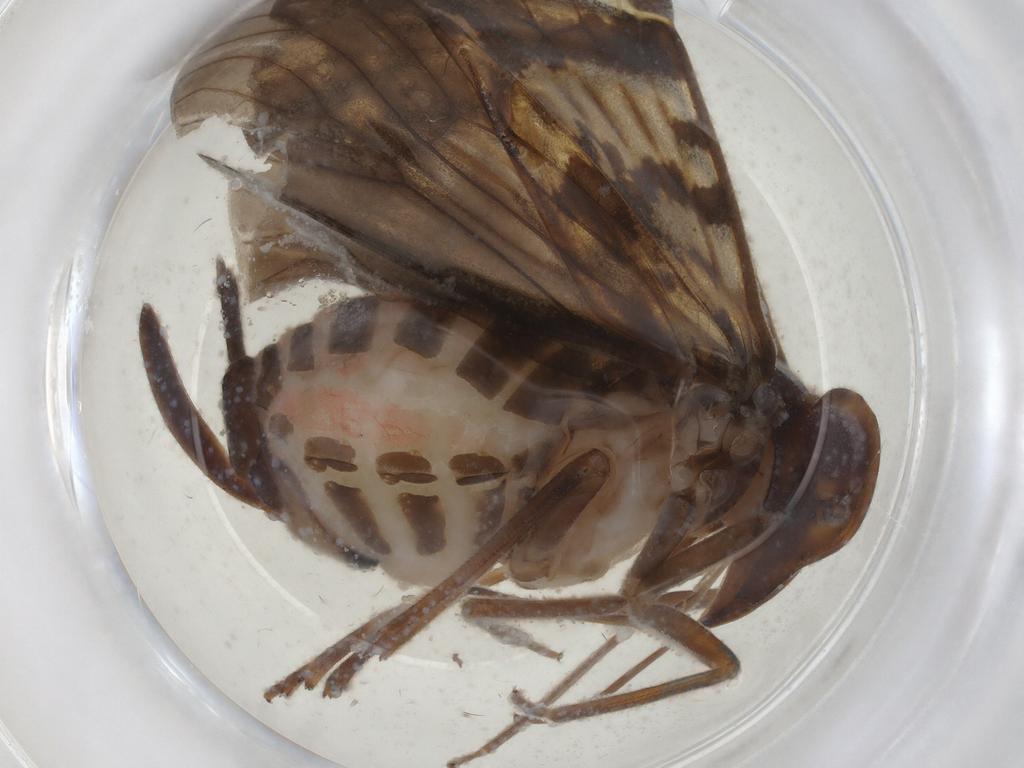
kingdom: Animalia
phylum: Arthropoda
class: Insecta
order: Hemiptera
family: Cixiidae
